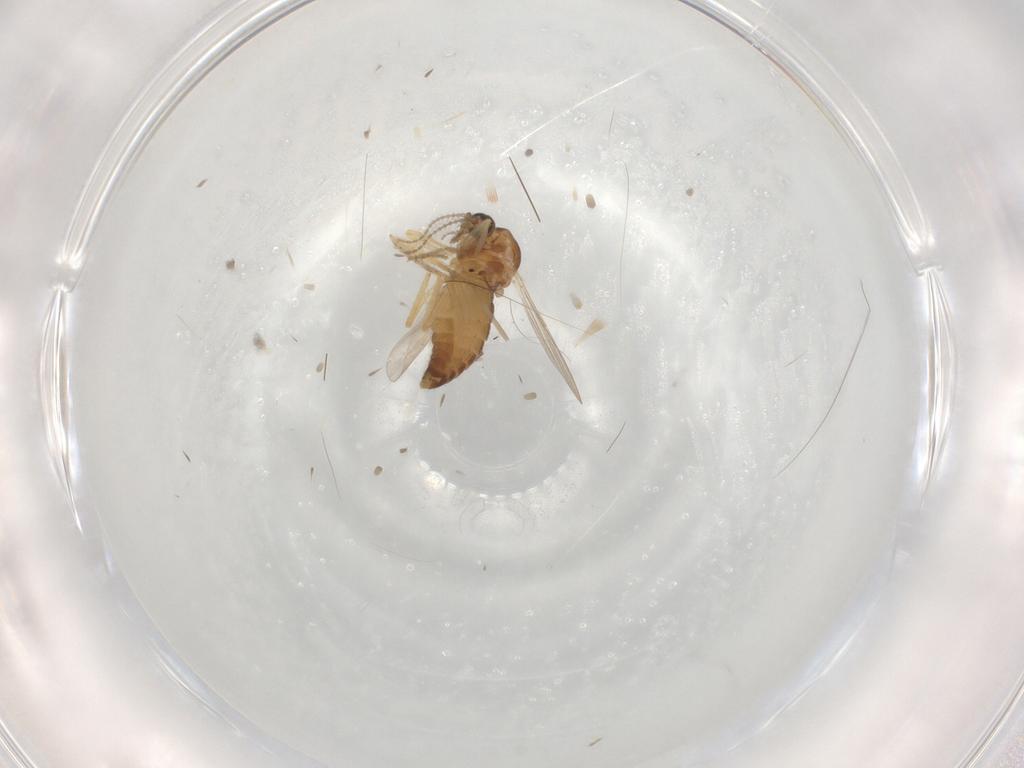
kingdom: Animalia
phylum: Arthropoda
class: Insecta
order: Diptera
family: Ceratopogonidae
